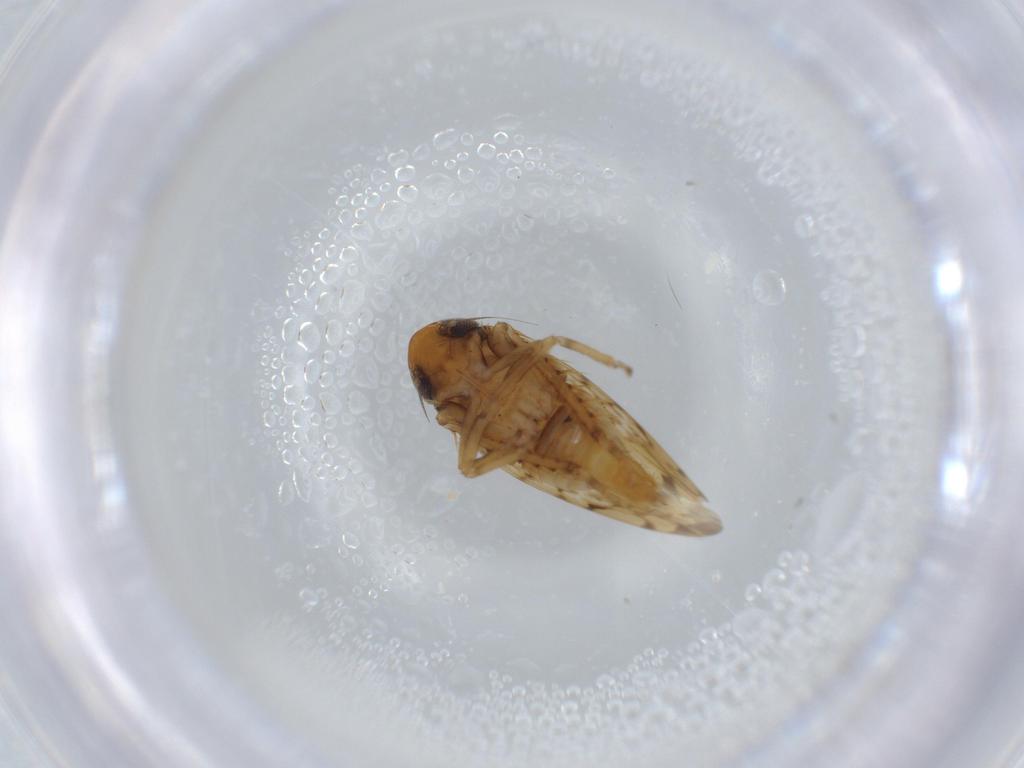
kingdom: Animalia
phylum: Arthropoda
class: Insecta
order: Hemiptera
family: Cicadellidae
